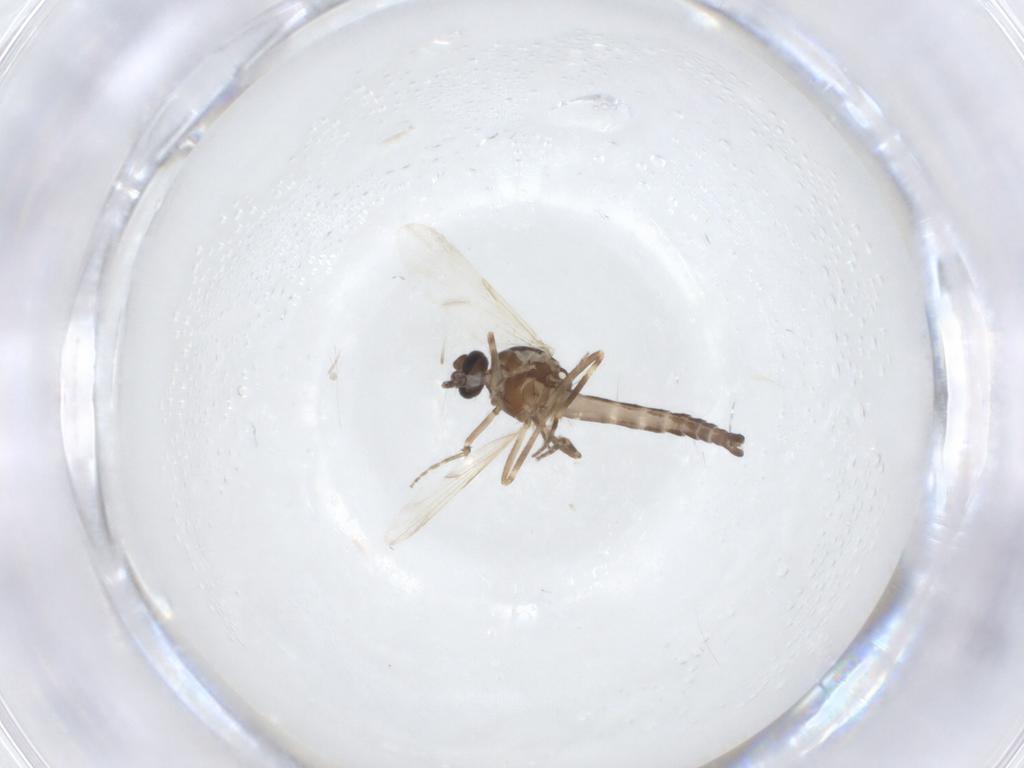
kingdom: Animalia
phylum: Arthropoda
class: Insecta
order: Diptera
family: Ceratopogonidae
